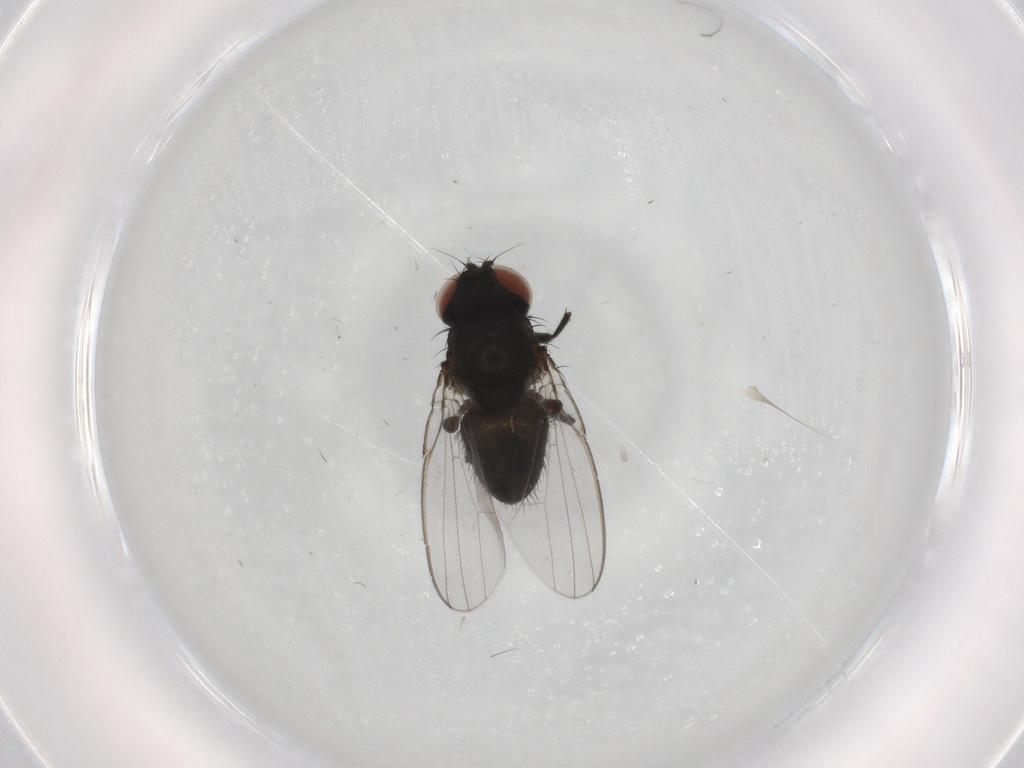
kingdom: Animalia
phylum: Arthropoda
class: Insecta
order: Diptera
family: Milichiidae
